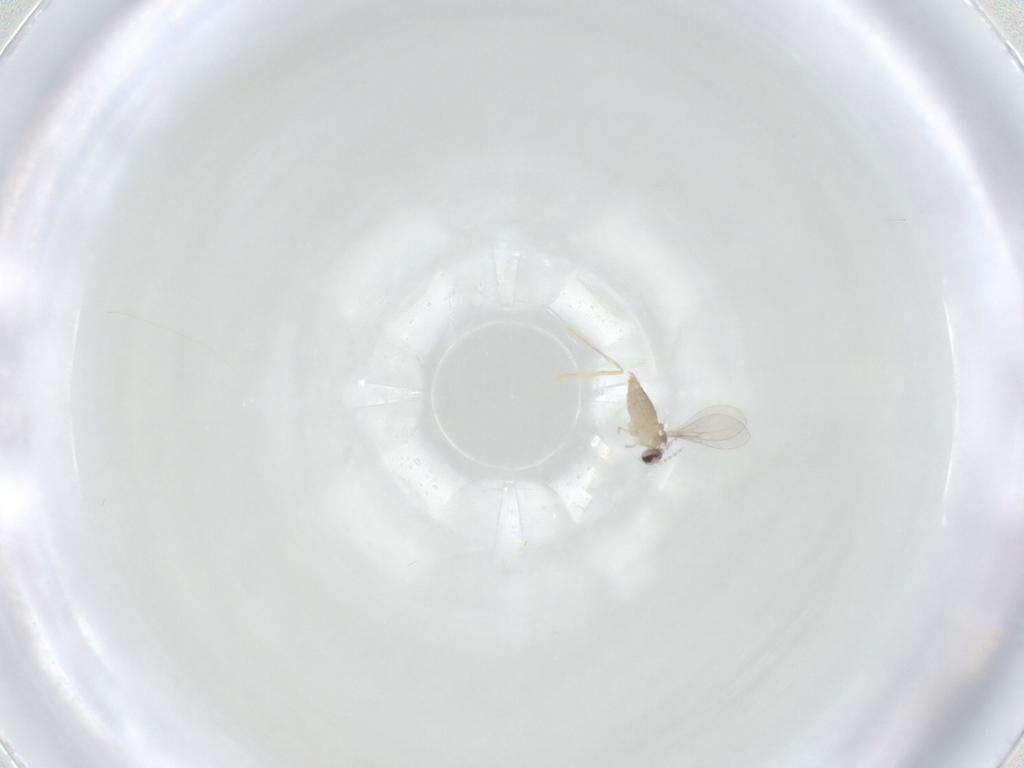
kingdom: Animalia
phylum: Arthropoda
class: Insecta
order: Diptera
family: Cecidomyiidae
